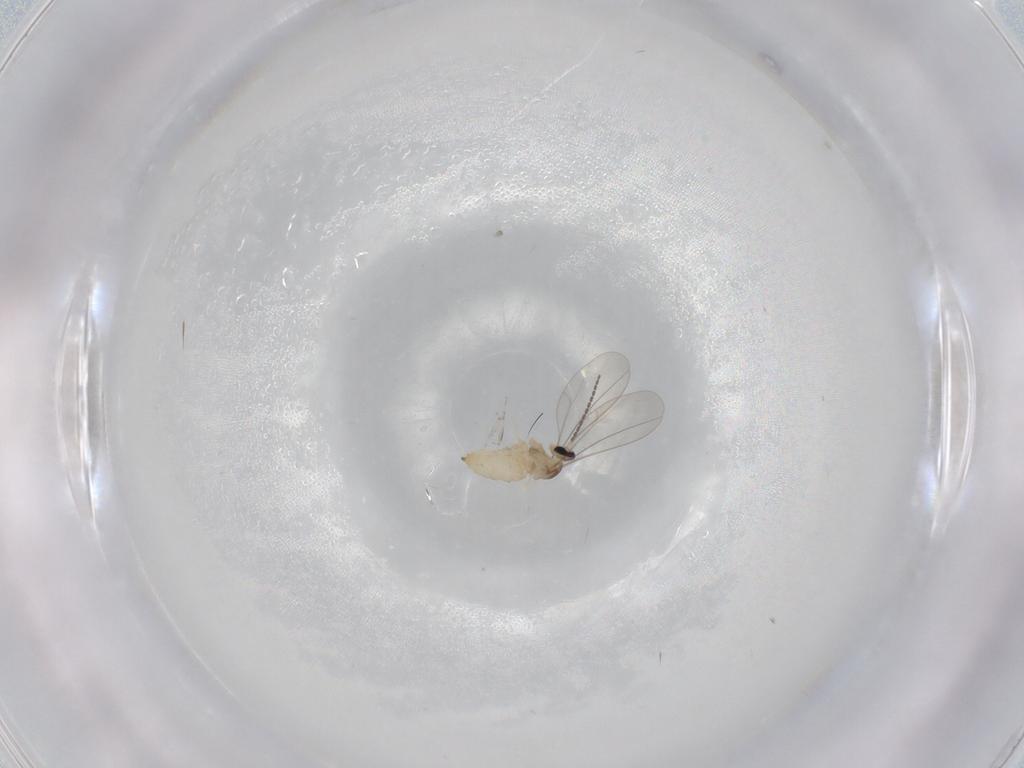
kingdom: Animalia
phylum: Arthropoda
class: Insecta
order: Diptera
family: Cecidomyiidae
